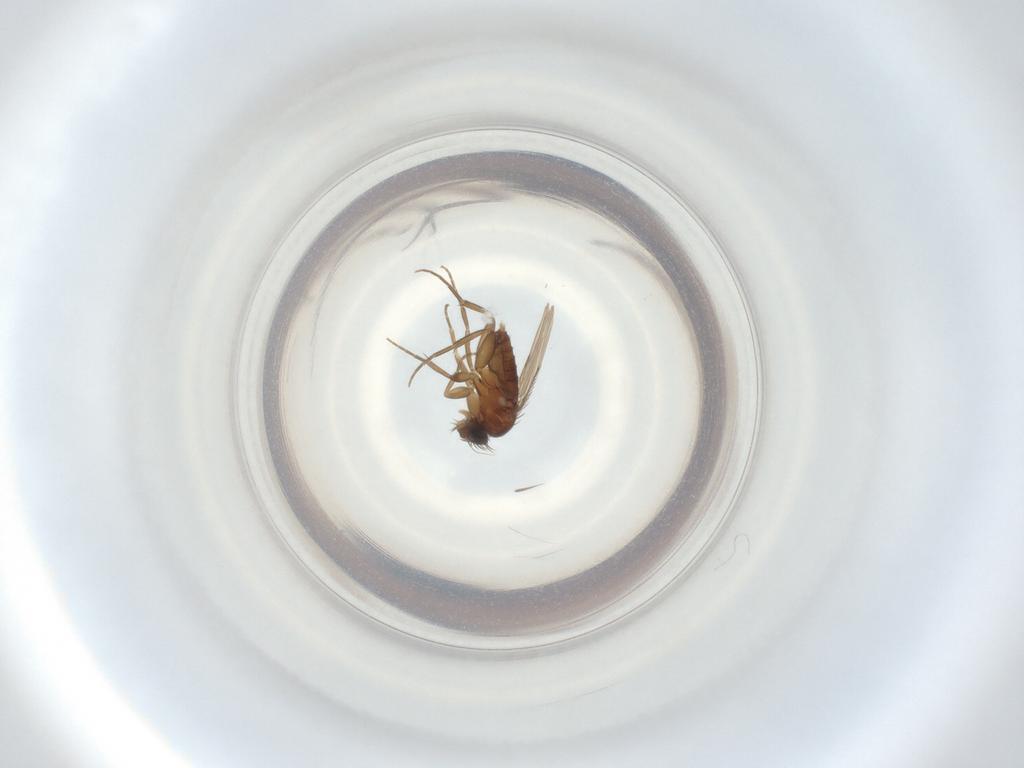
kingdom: Animalia
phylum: Arthropoda
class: Insecta
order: Diptera
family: Phoridae
